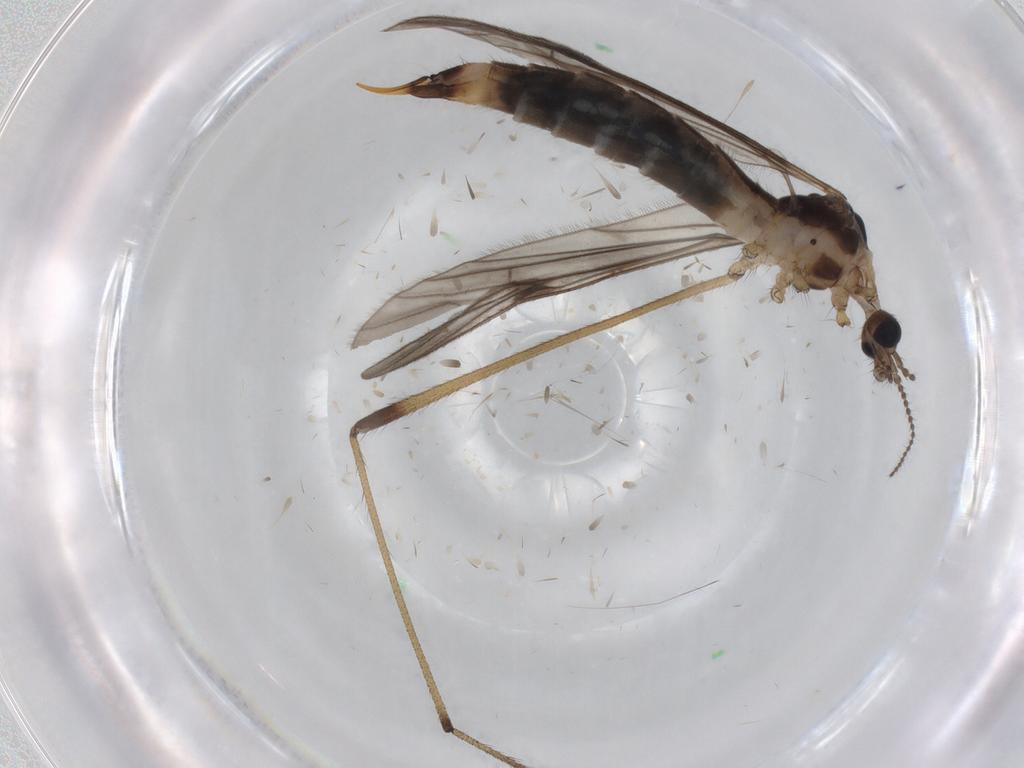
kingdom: Animalia
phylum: Arthropoda
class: Insecta
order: Diptera
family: Limoniidae
